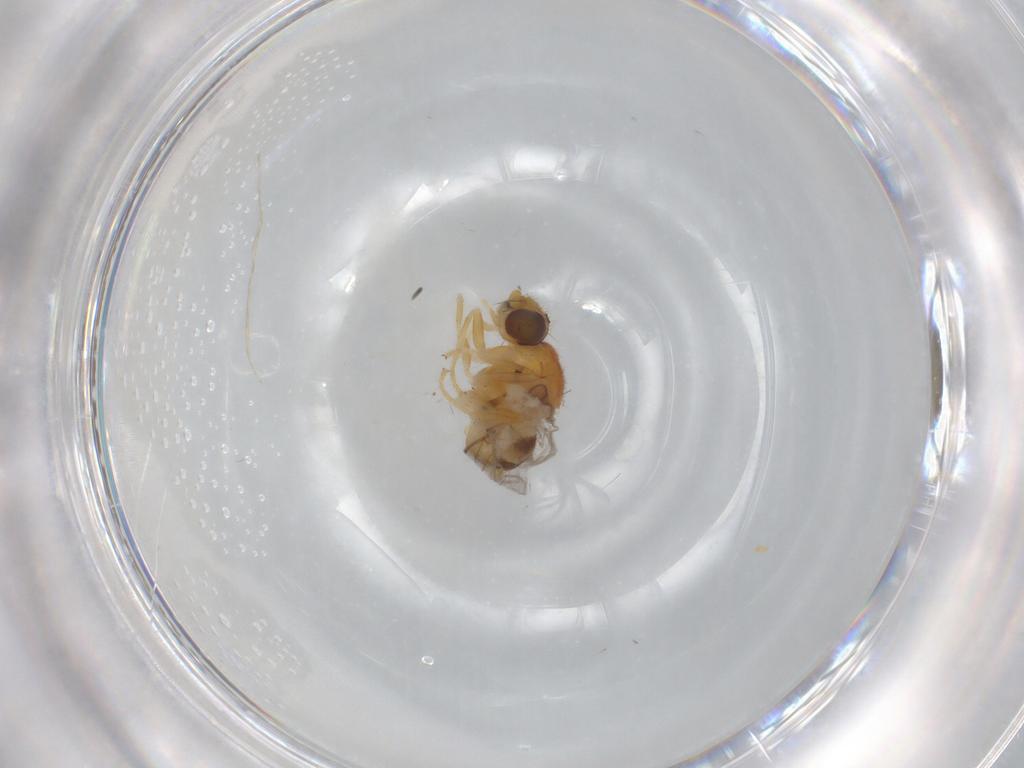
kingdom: Animalia
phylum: Arthropoda
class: Insecta
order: Diptera
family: Chloropidae
